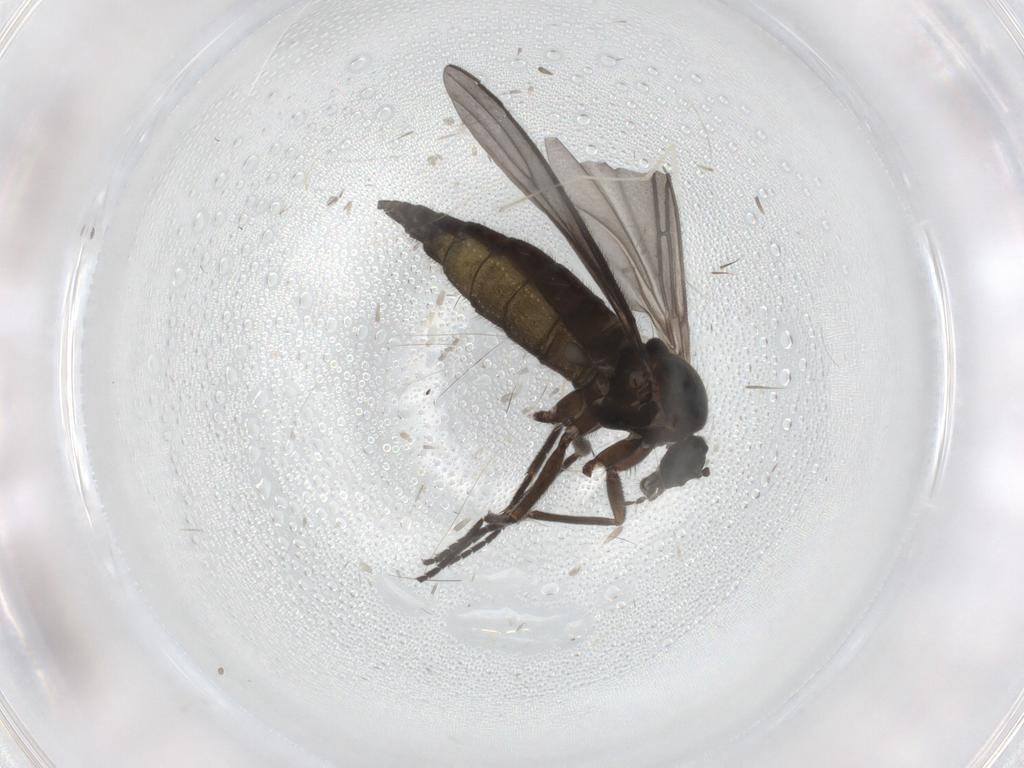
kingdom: Animalia
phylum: Arthropoda
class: Insecta
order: Diptera
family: Sciaridae
